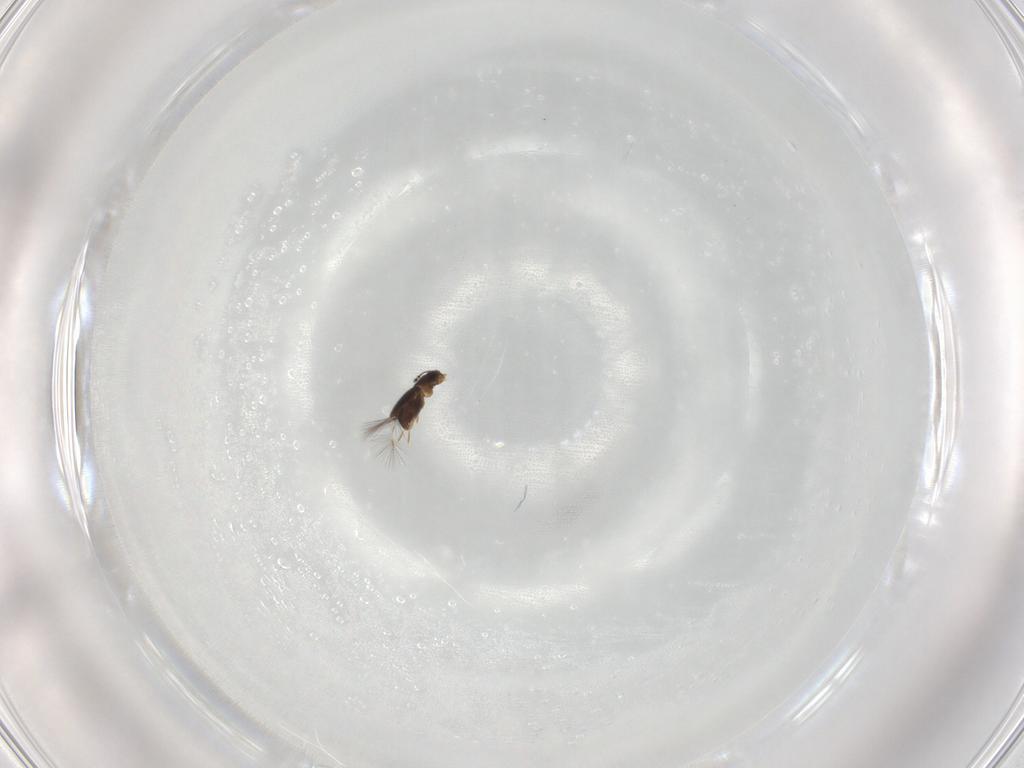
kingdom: Animalia
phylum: Arthropoda
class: Insecta
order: Coleoptera
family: Ptiliidae
